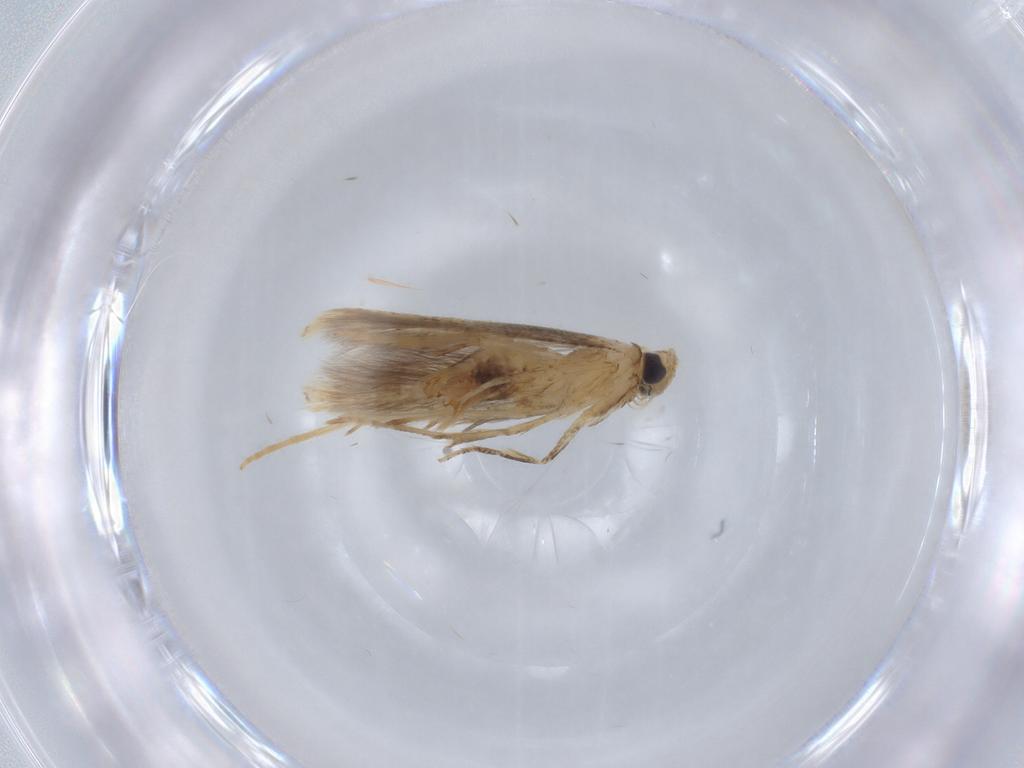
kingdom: Animalia
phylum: Arthropoda
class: Insecta
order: Lepidoptera
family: Tischeriidae
